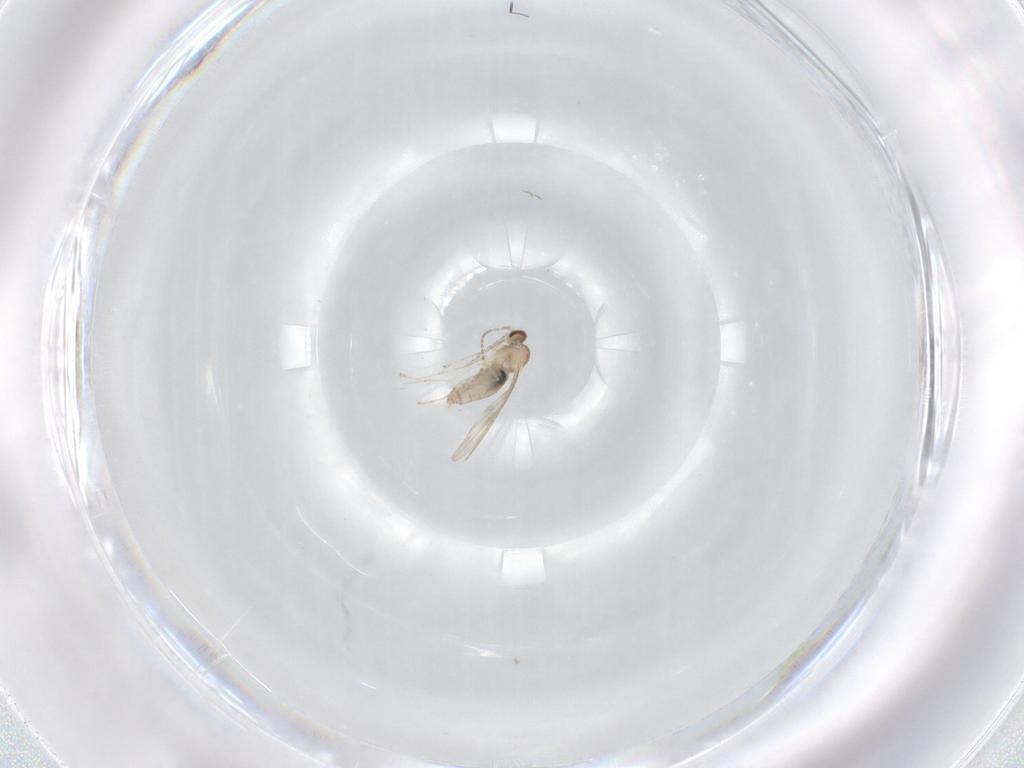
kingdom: Animalia
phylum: Arthropoda
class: Insecta
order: Diptera
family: Cecidomyiidae
